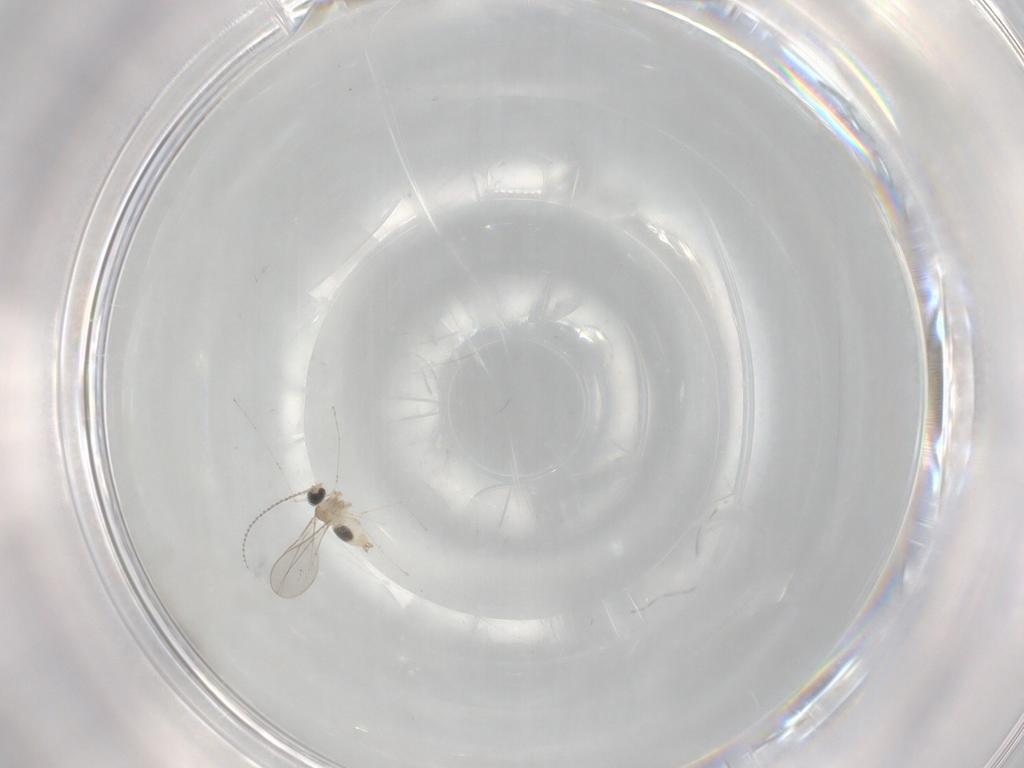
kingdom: Animalia
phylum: Arthropoda
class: Insecta
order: Diptera
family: Cecidomyiidae
